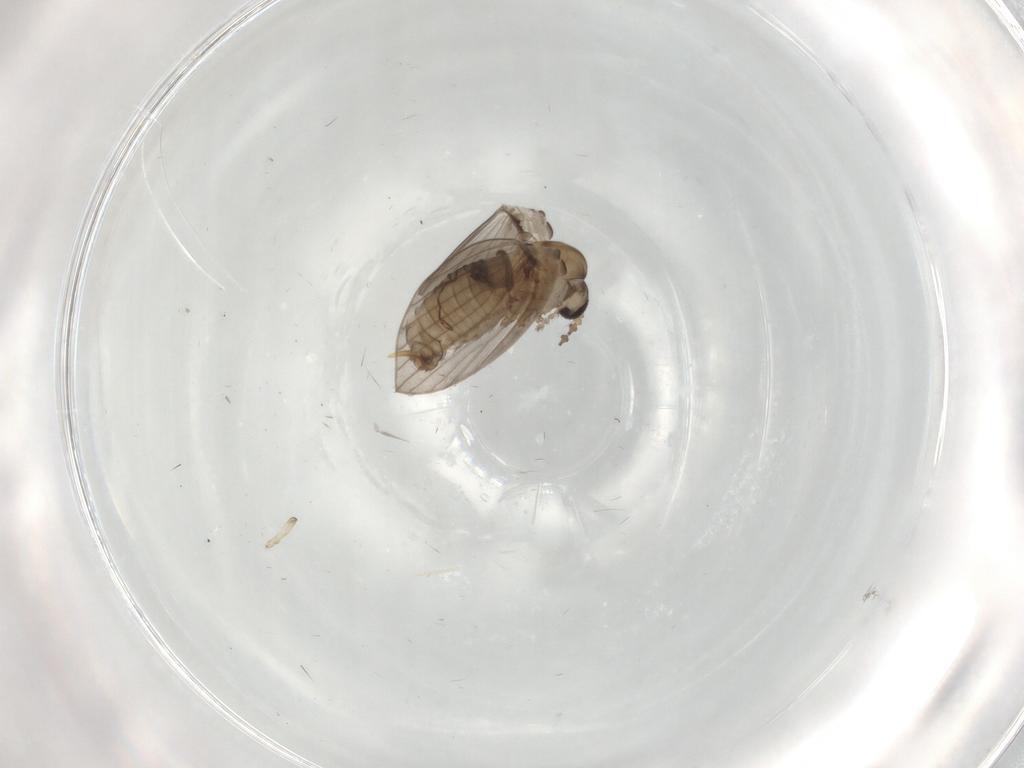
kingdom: Animalia
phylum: Arthropoda
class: Insecta
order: Diptera
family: Psychodidae
